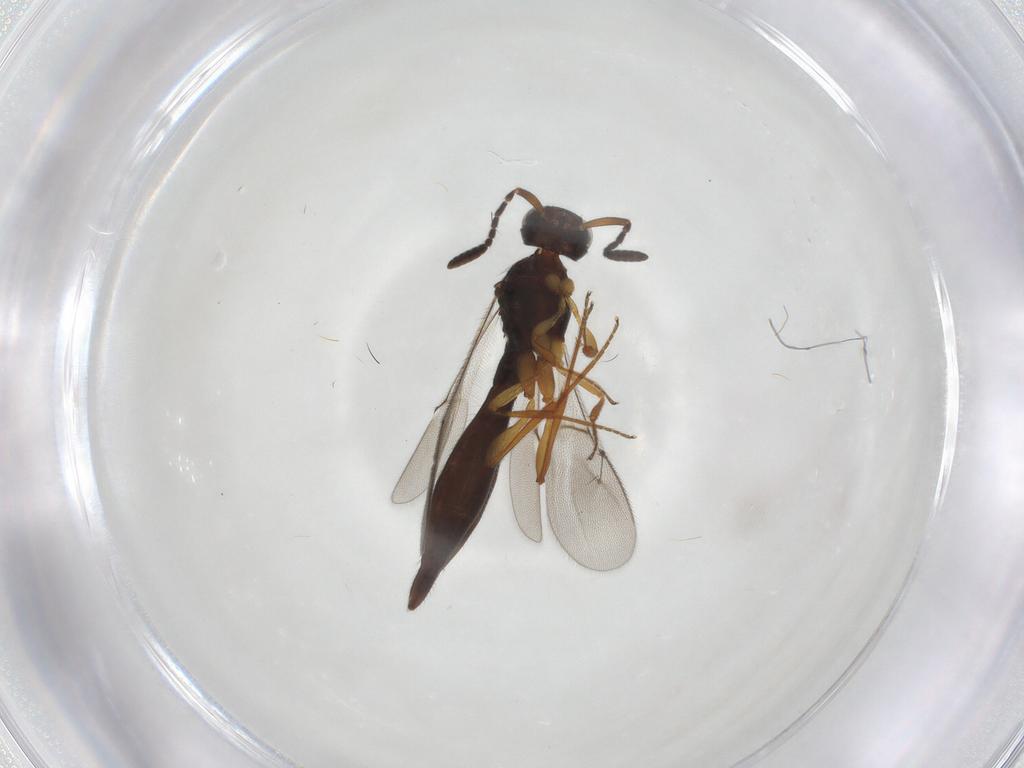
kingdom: Animalia
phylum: Arthropoda
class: Insecta
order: Hymenoptera
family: Scelionidae
